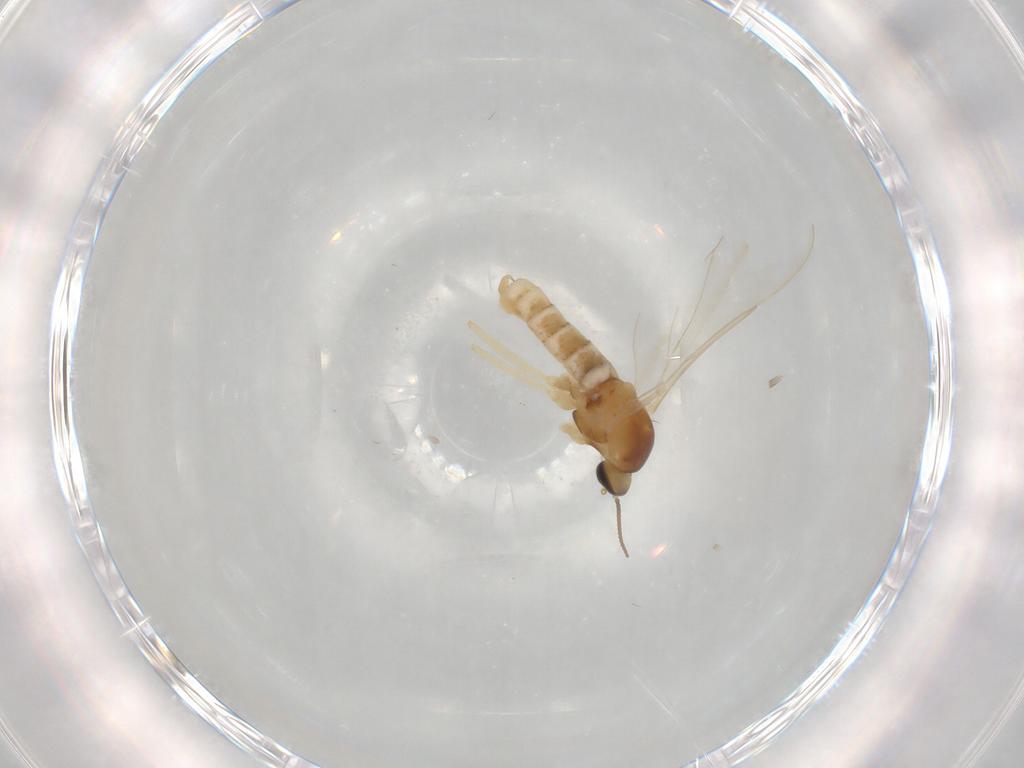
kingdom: Animalia
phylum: Arthropoda
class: Insecta
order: Diptera
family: Cecidomyiidae
